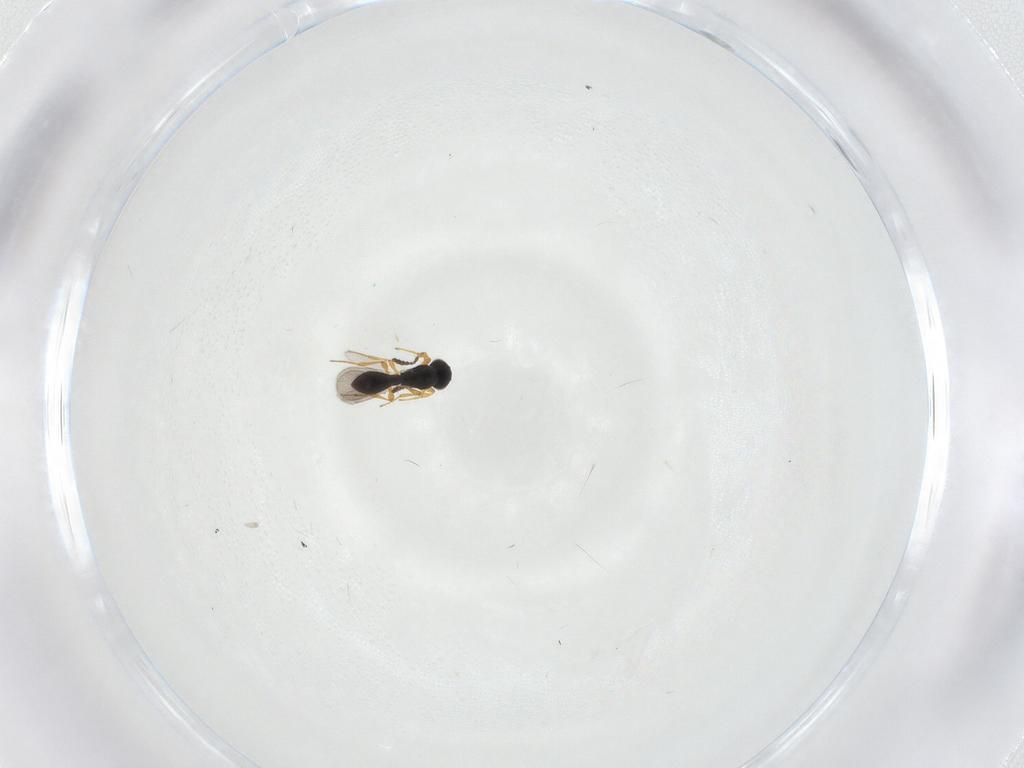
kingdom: Animalia
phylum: Arthropoda
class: Insecta
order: Hymenoptera
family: Platygastridae
